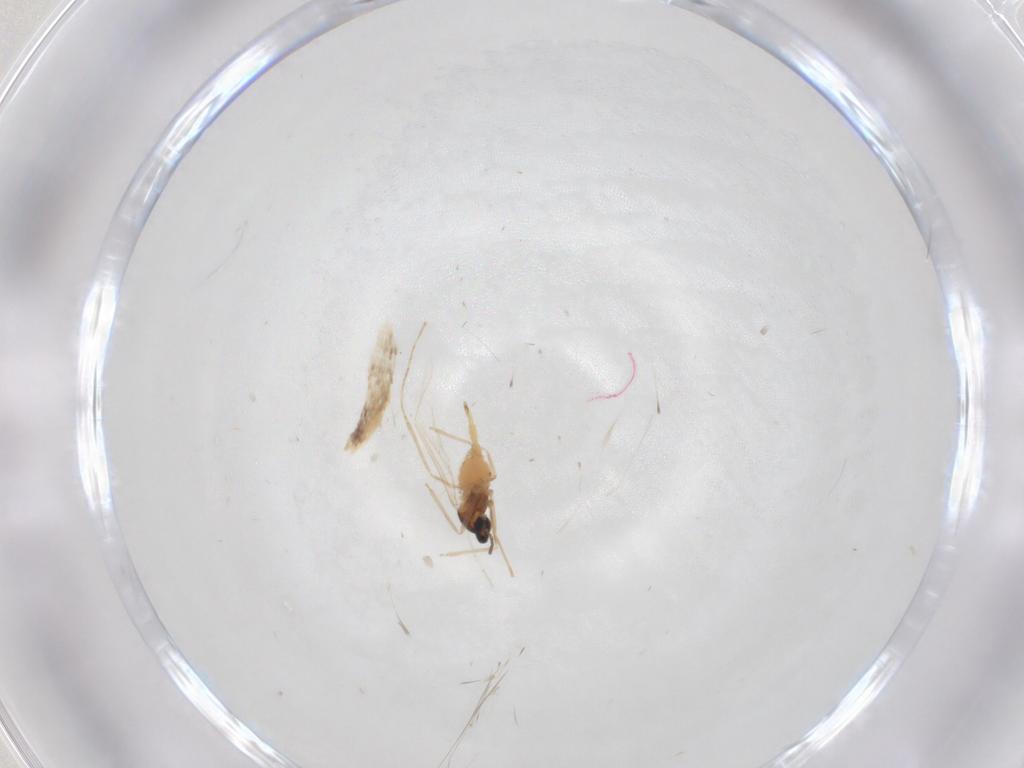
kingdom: Animalia
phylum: Arthropoda
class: Insecta
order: Diptera
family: Cecidomyiidae
